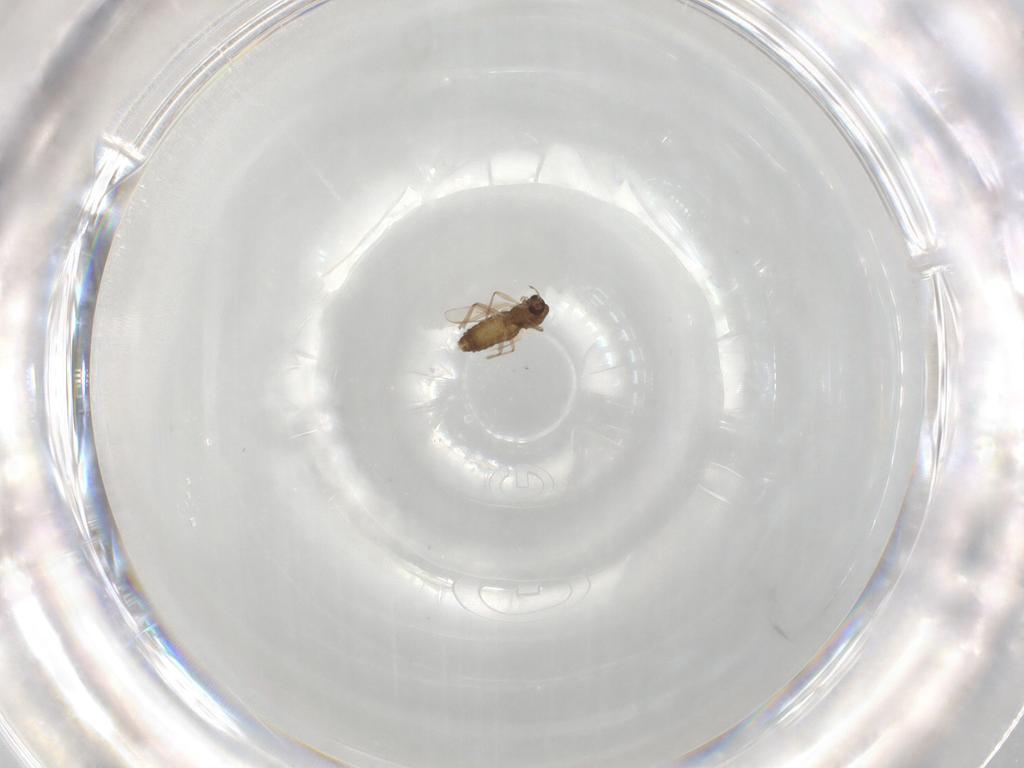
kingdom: Animalia
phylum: Arthropoda
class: Insecta
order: Diptera
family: Chironomidae
